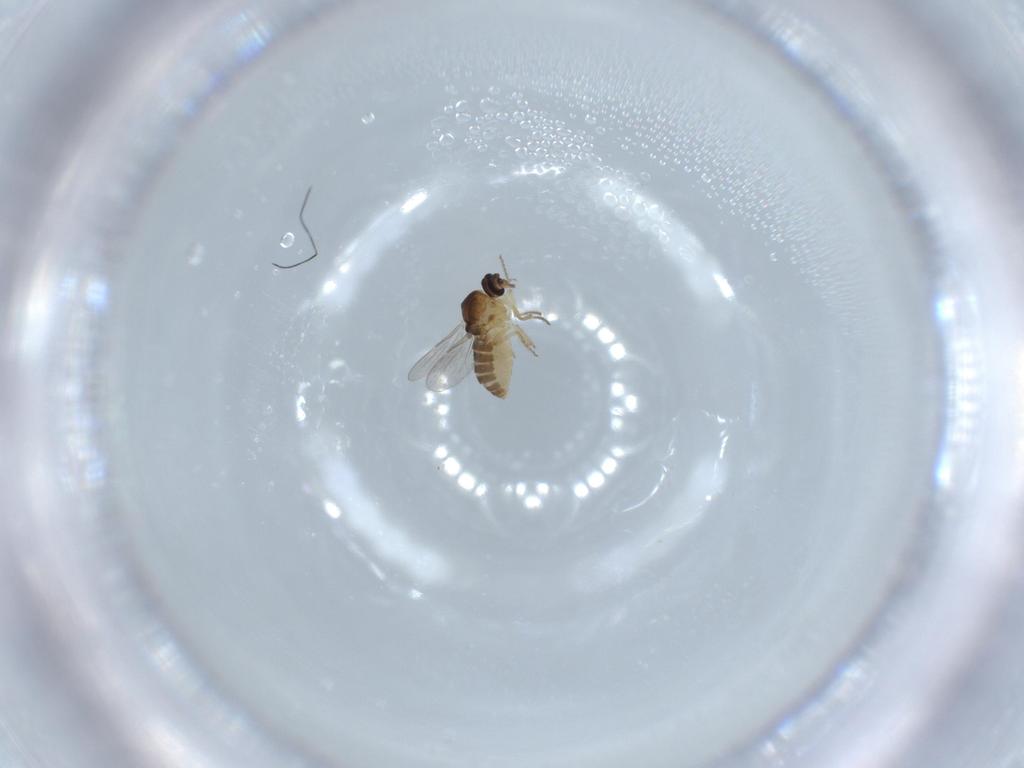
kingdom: Animalia
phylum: Arthropoda
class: Insecta
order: Diptera
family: Ceratopogonidae
